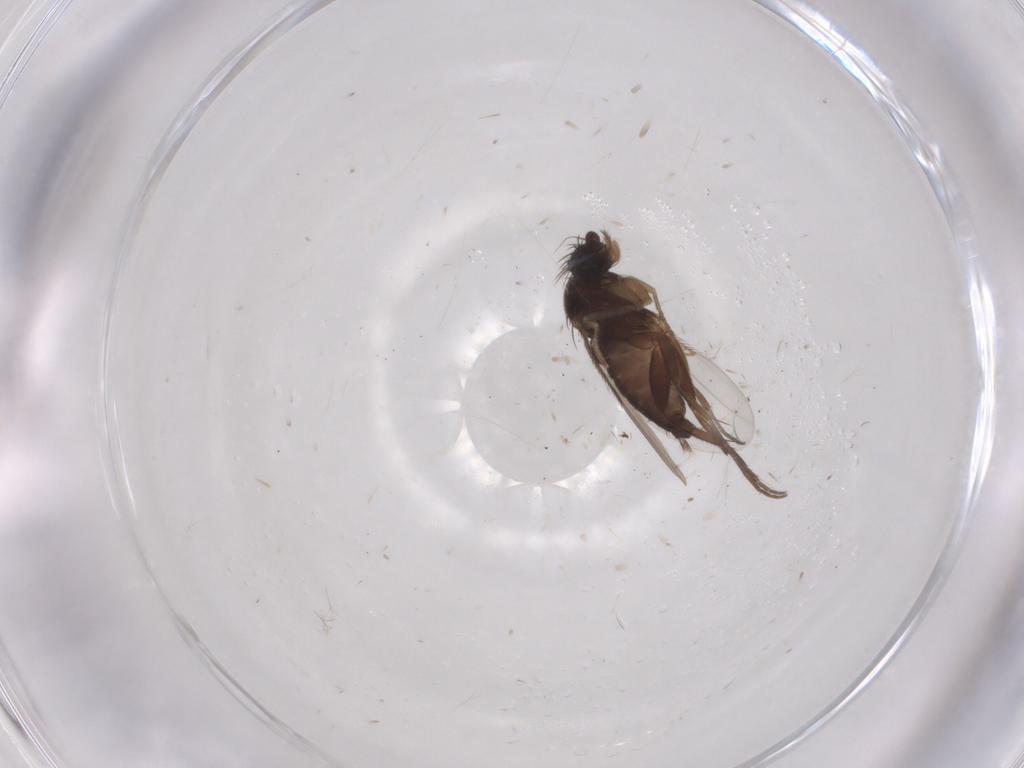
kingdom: Animalia
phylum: Arthropoda
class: Insecta
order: Diptera
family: Phoridae
